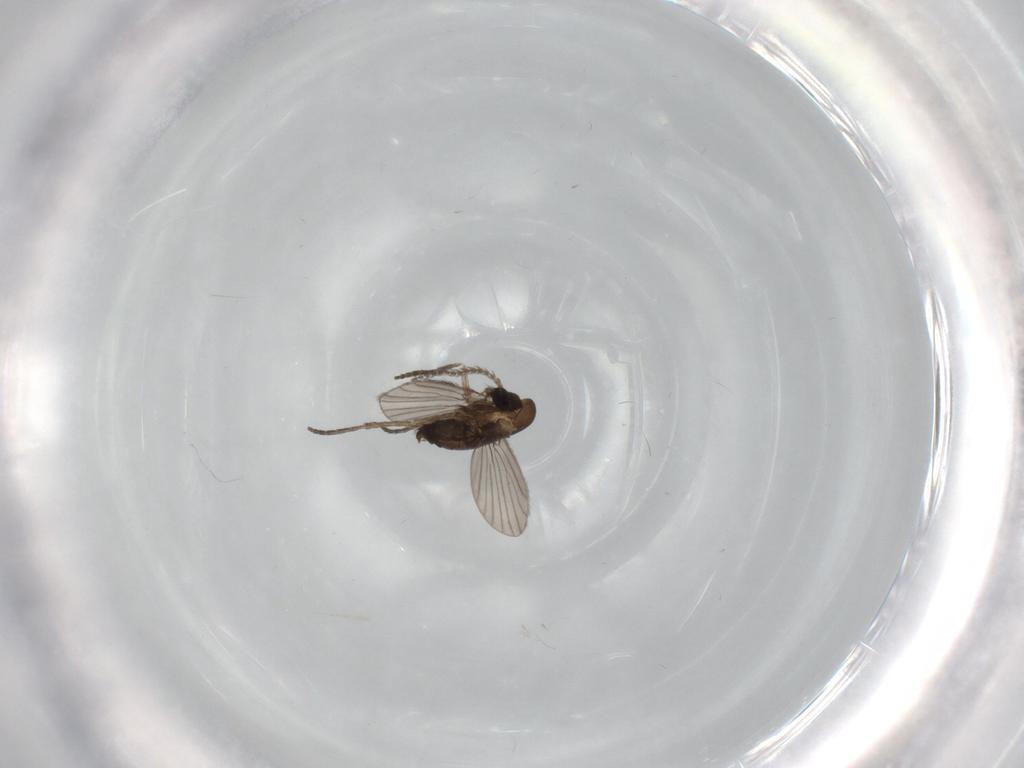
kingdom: Animalia
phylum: Arthropoda
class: Insecta
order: Diptera
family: Psychodidae
